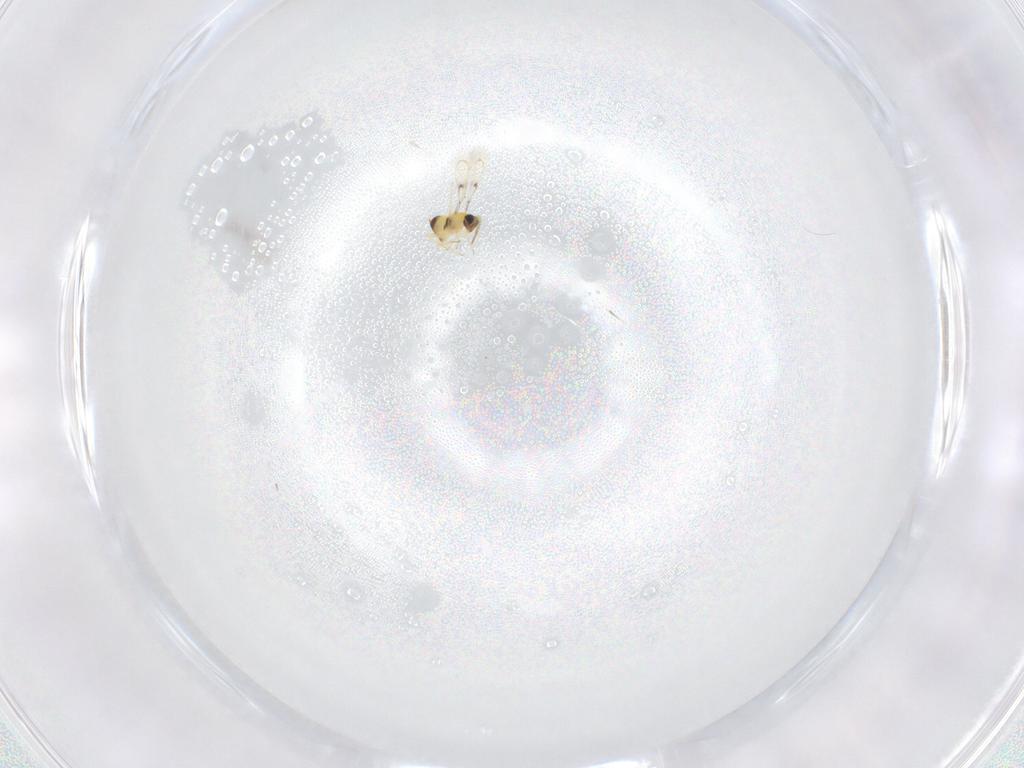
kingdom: Animalia
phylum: Arthropoda
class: Insecta
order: Hymenoptera
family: Trichogrammatidae
